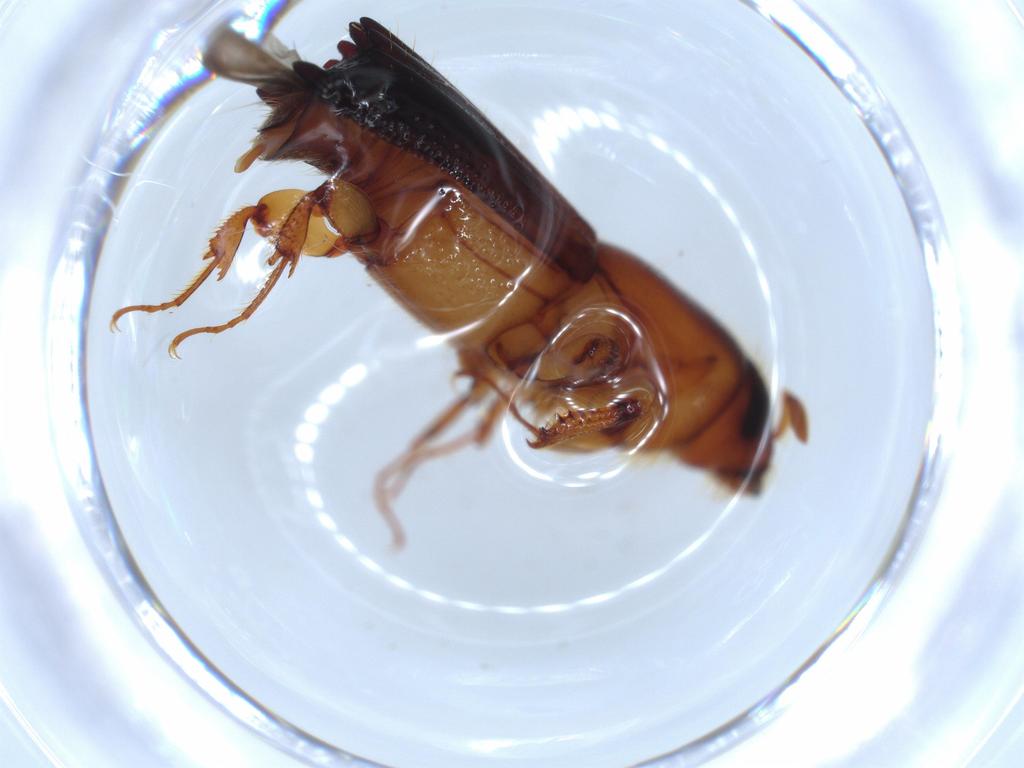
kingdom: Animalia
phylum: Arthropoda
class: Insecta
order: Coleoptera
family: Curculionidae
